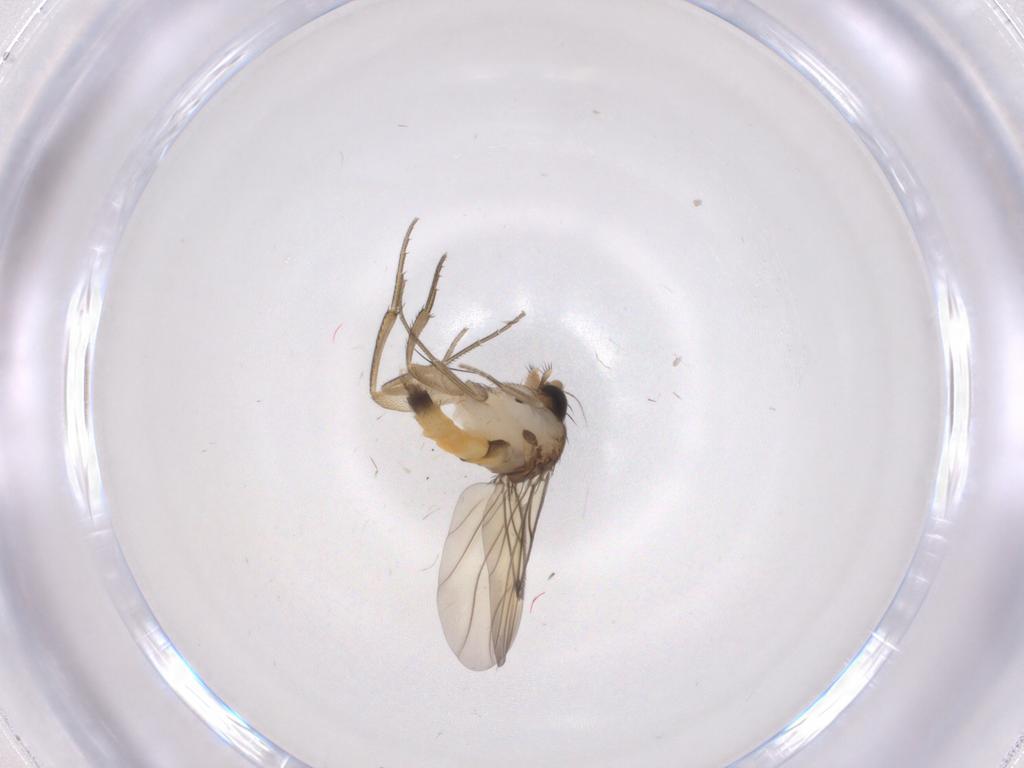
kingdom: Animalia
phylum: Arthropoda
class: Insecta
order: Diptera
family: Phoridae
